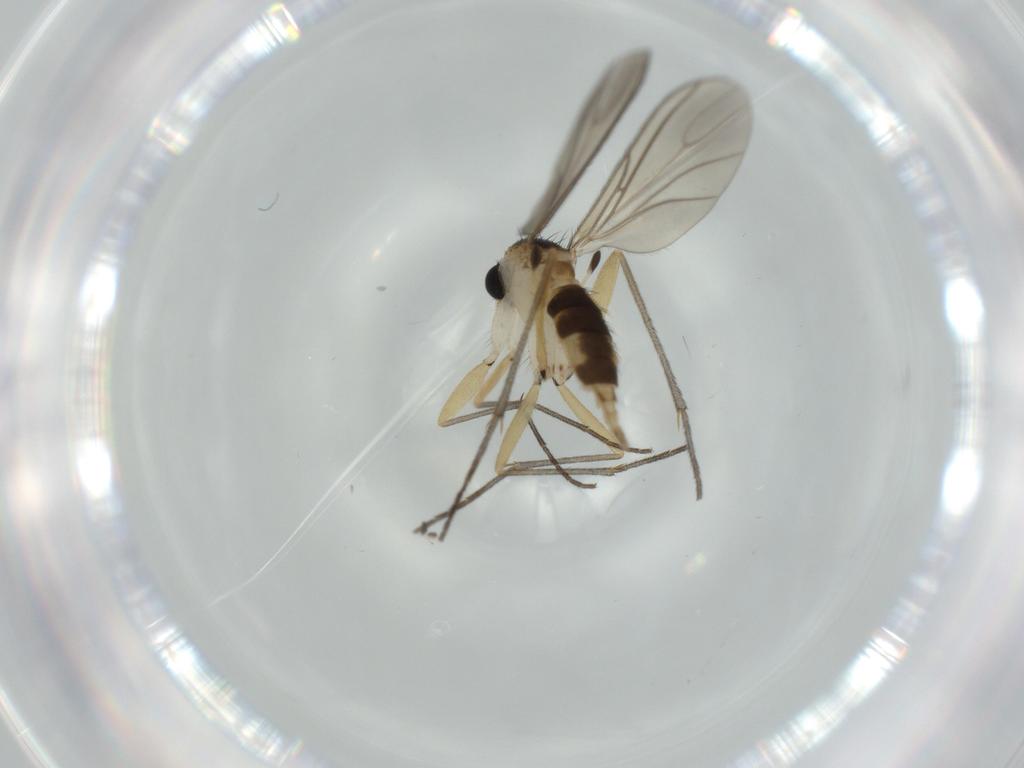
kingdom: Animalia
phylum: Arthropoda
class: Insecta
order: Diptera
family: Sciaridae
